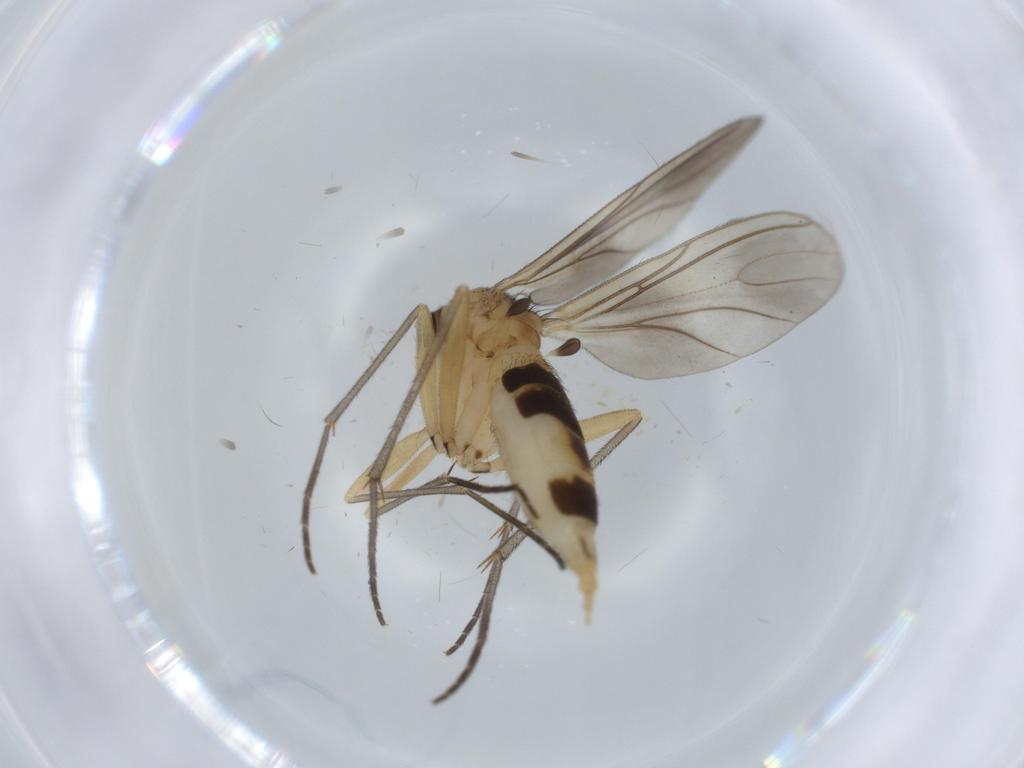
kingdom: Animalia
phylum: Arthropoda
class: Insecta
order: Diptera
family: Sciaridae
